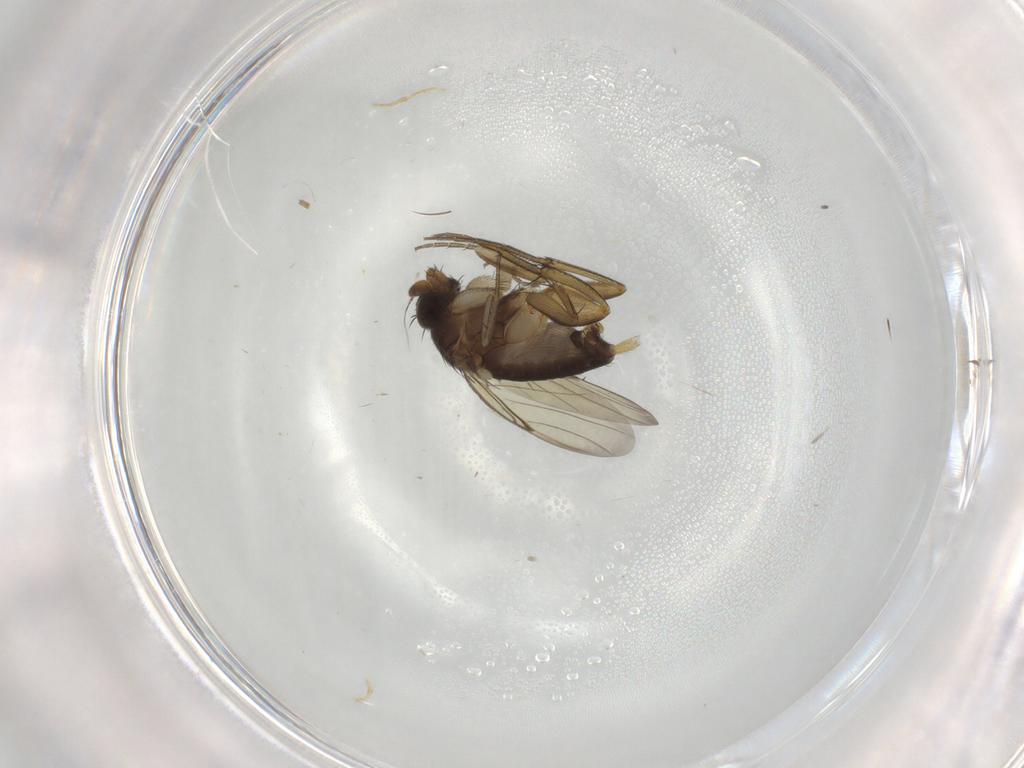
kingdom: Animalia
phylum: Arthropoda
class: Insecta
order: Diptera
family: Phoridae
